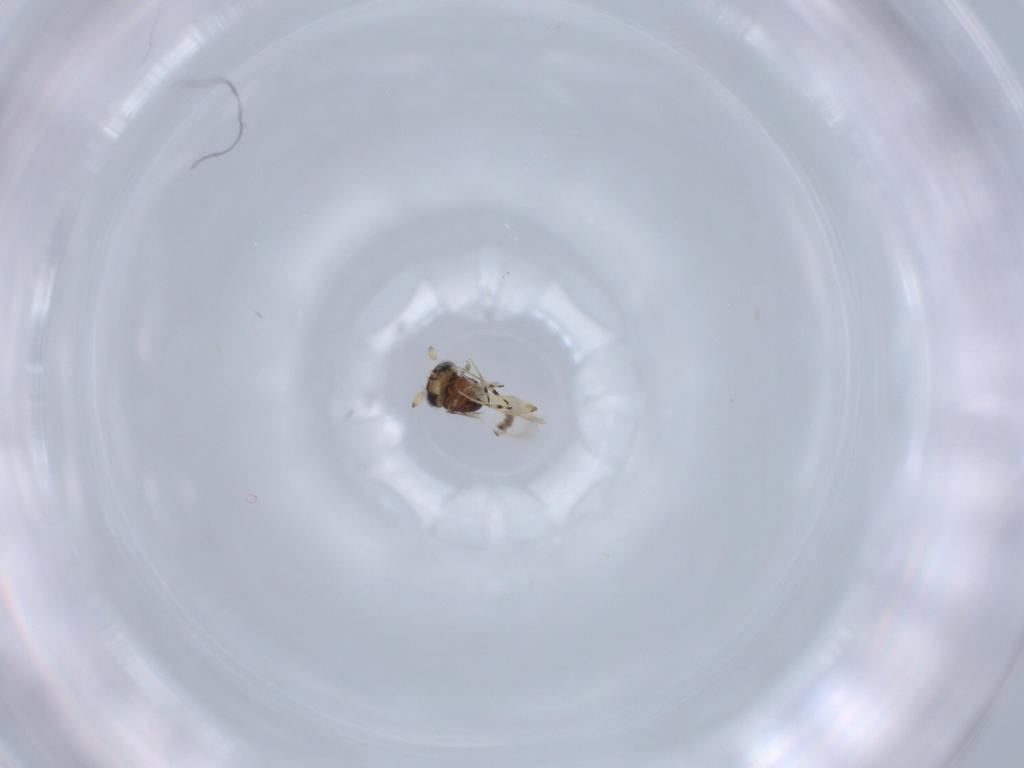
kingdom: Animalia
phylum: Arthropoda
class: Insecta
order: Hymenoptera
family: Scelionidae
